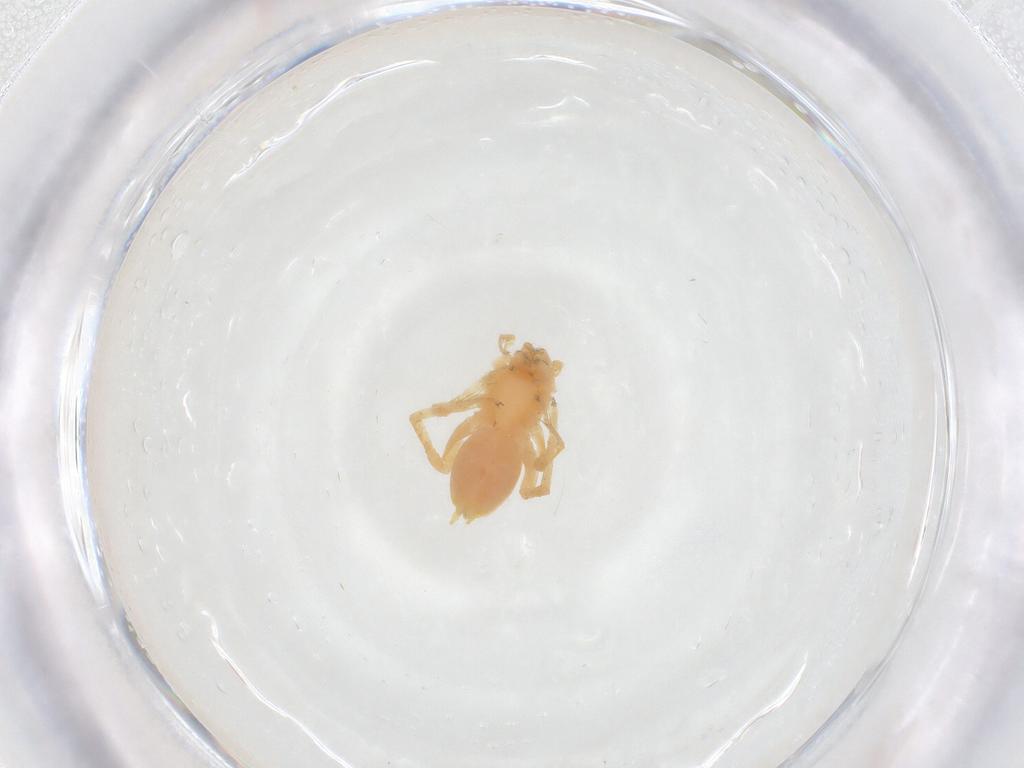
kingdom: Animalia
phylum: Arthropoda
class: Arachnida
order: Araneae
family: Anyphaenidae
